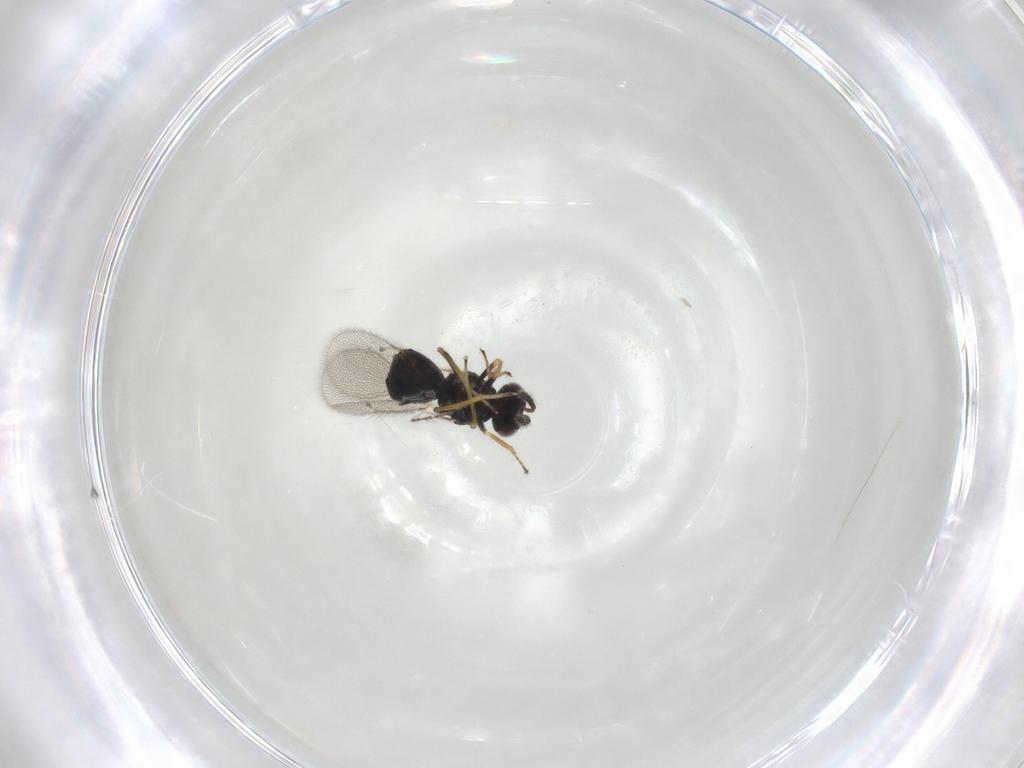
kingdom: Animalia
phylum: Arthropoda
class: Insecta
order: Hymenoptera
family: Eulophidae
